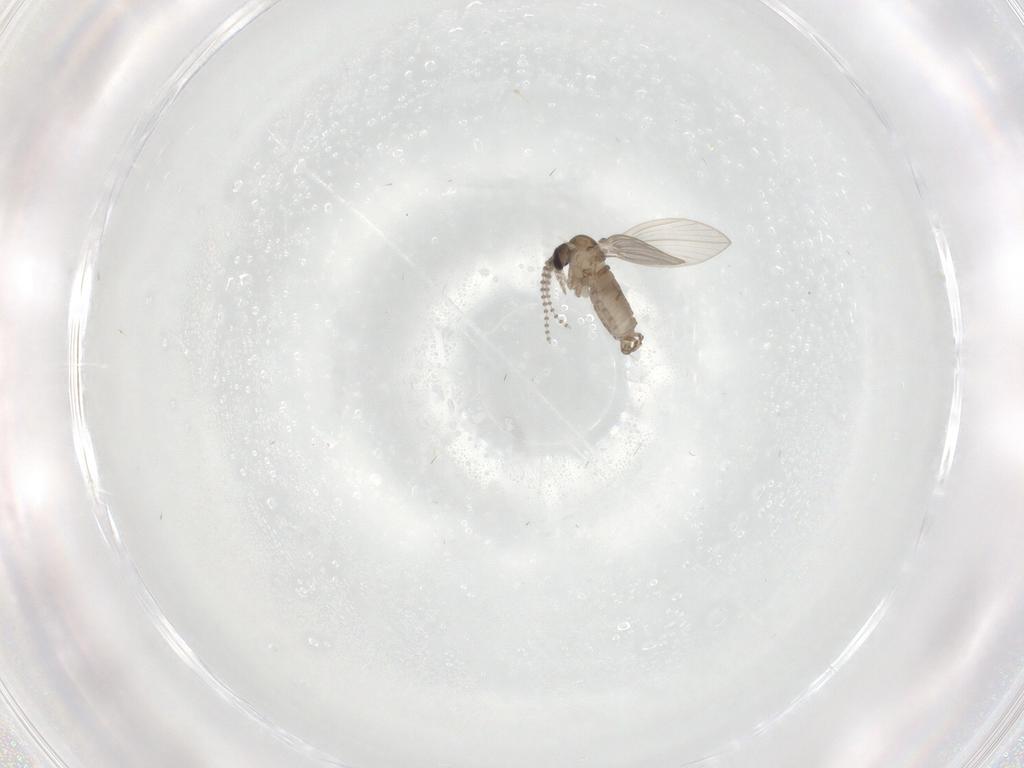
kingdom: Animalia
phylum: Arthropoda
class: Insecta
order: Diptera
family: Psychodidae
